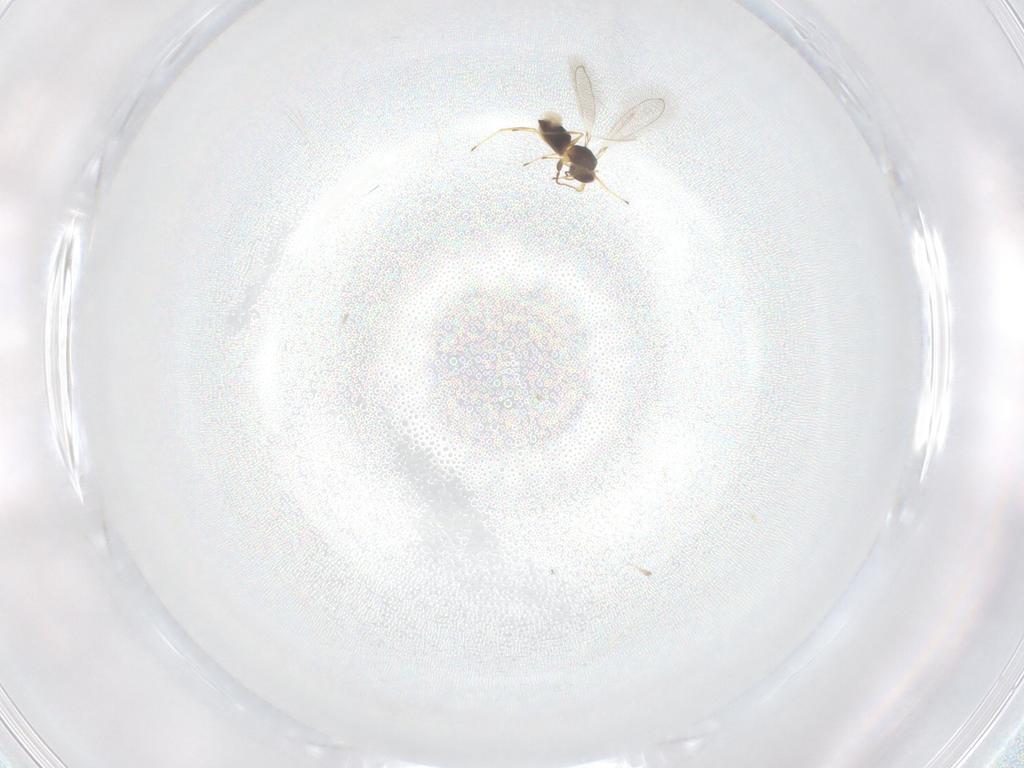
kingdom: Animalia
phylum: Arthropoda
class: Insecta
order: Hymenoptera
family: Mymaridae
